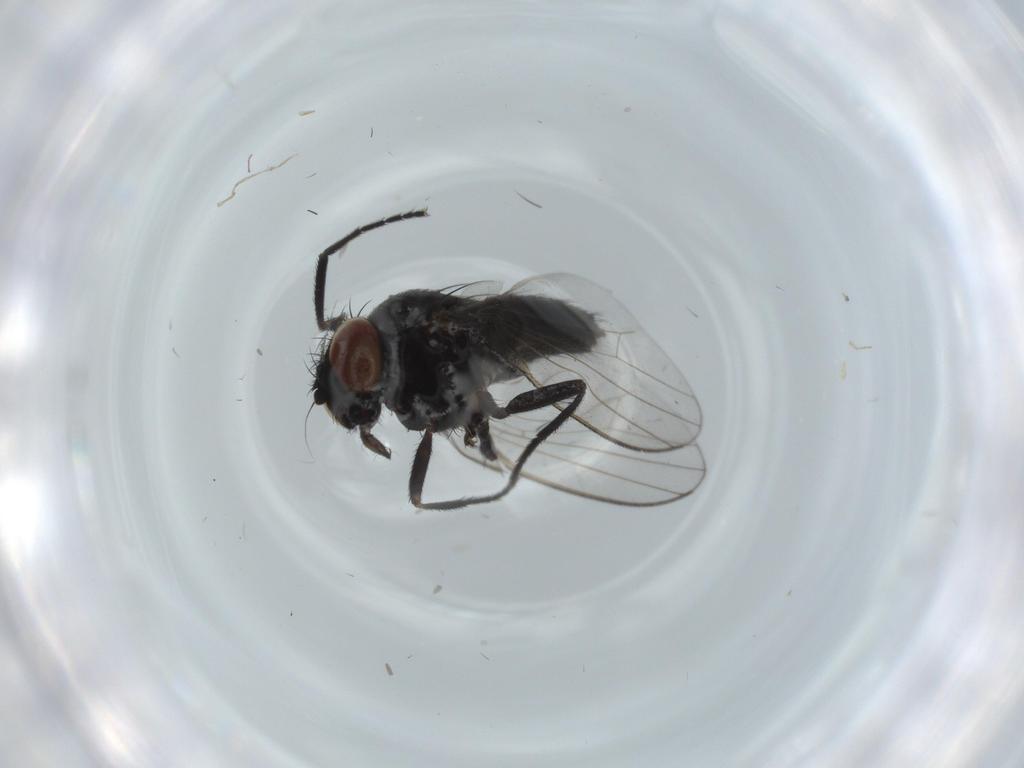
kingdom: Animalia
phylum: Arthropoda
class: Insecta
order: Diptera
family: Milichiidae
